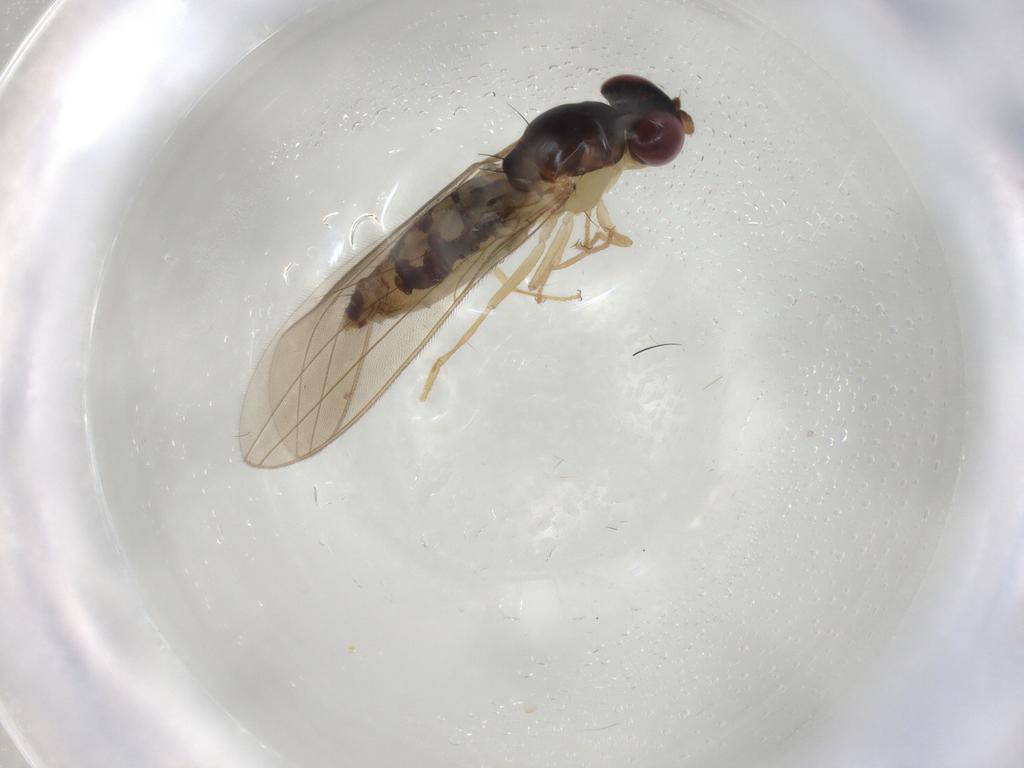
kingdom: Animalia
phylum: Arthropoda
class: Insecta
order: Diptera
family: Asteiidae
